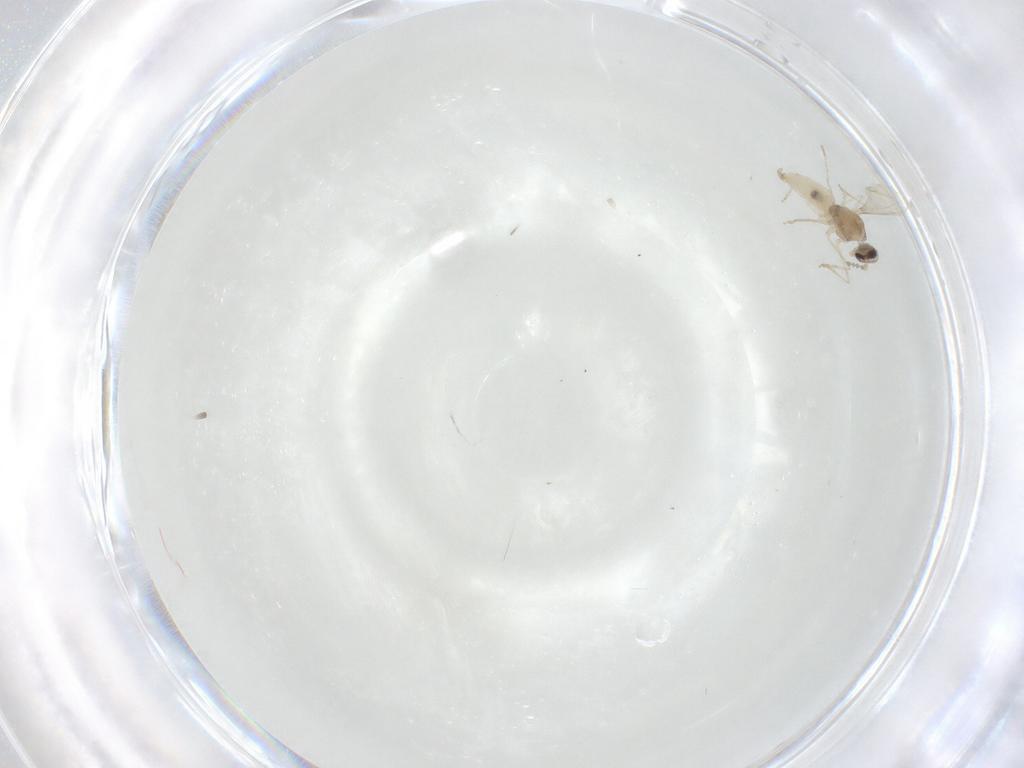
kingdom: Animalia
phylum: Arthropoda
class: Insecta
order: Diptera
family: Cecidomyiidae
